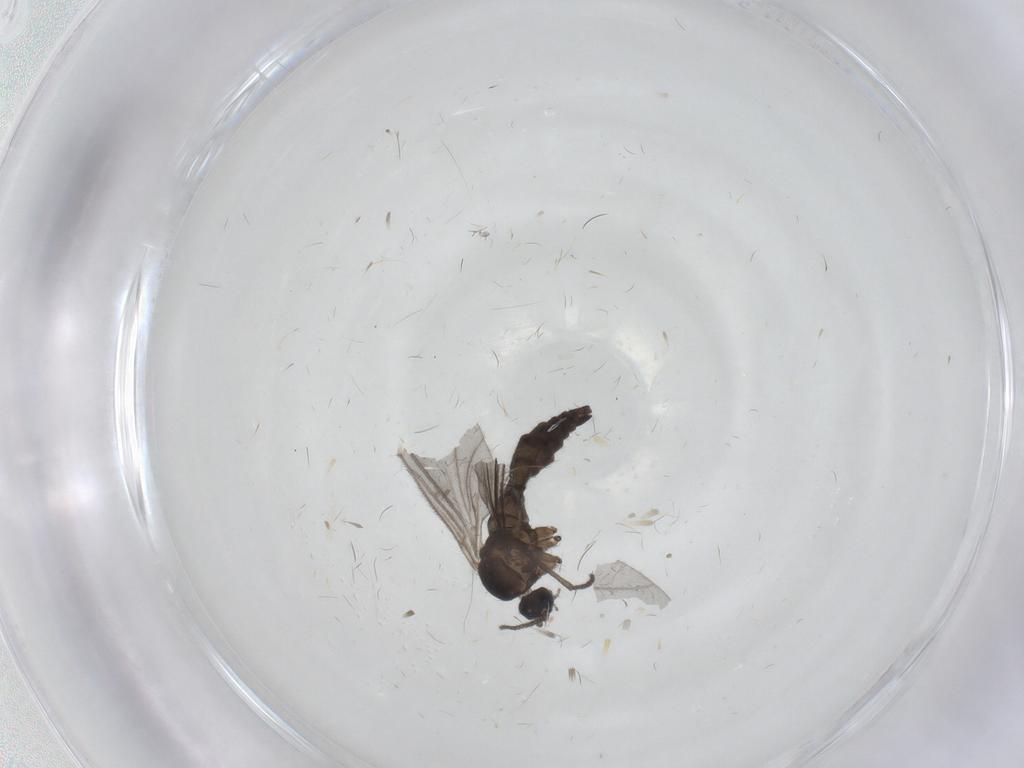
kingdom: Animalia
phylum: Arthropoda
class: Insecta
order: Diptera
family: Sciaridae
